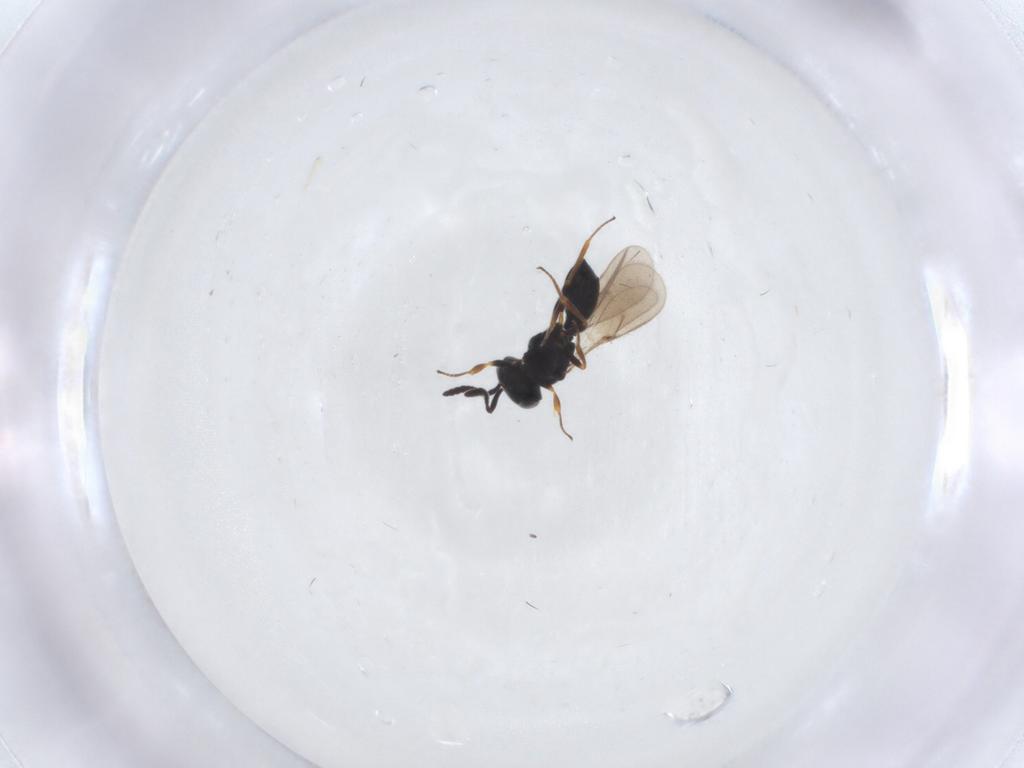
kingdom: Animalia
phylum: Arthropoda
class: Insecta
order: Hymenoptera
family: Scelionidae
